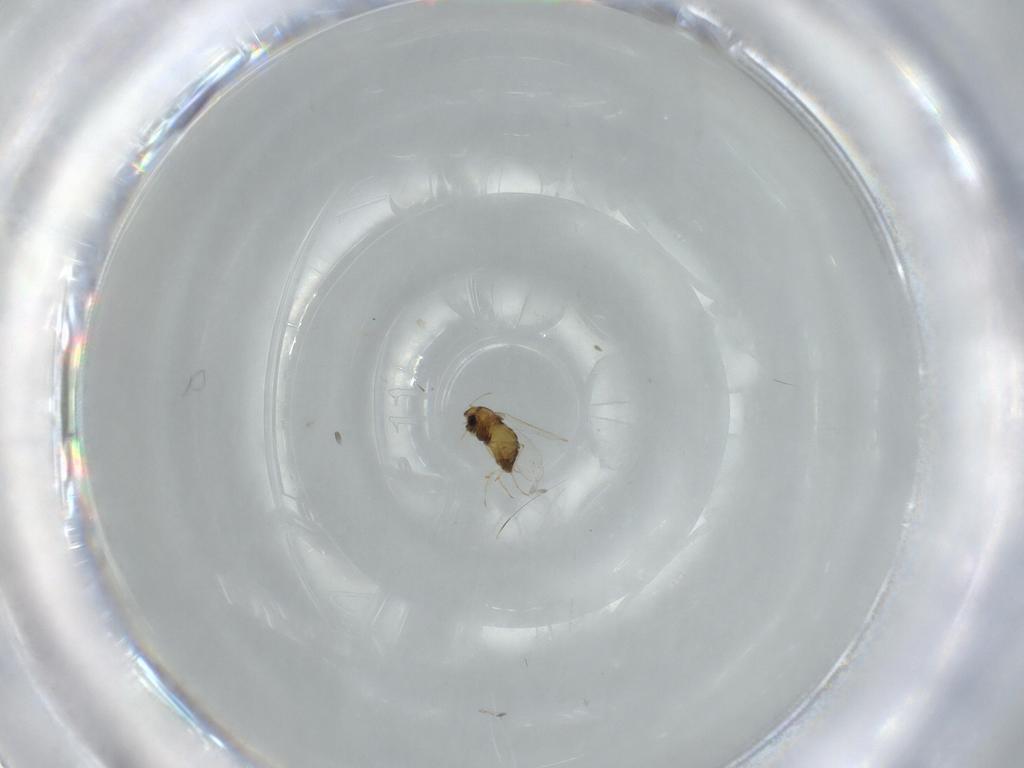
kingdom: Animalia
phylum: Arthropoda
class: Insecta
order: Diptera
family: Chironomidae
